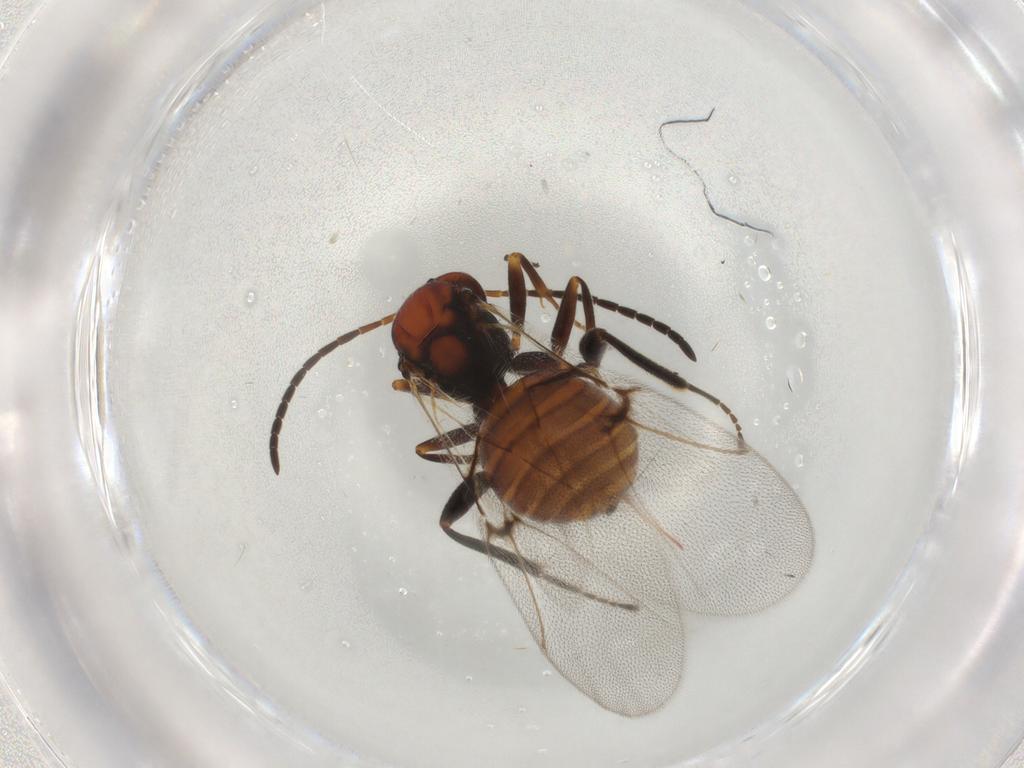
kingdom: Animalia
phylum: Arthropoda
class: Insecta
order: Hymenoptera
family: Cynipidae
